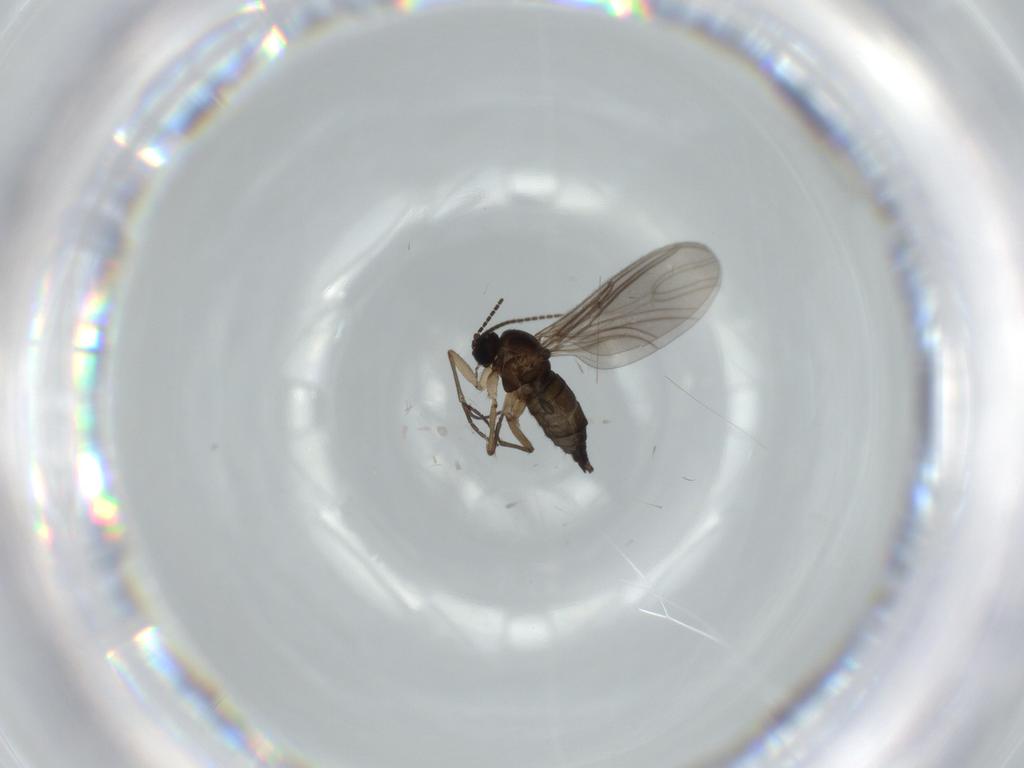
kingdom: Animalia
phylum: Arthropoda
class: Insecta
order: Diptera
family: Sciaridae
